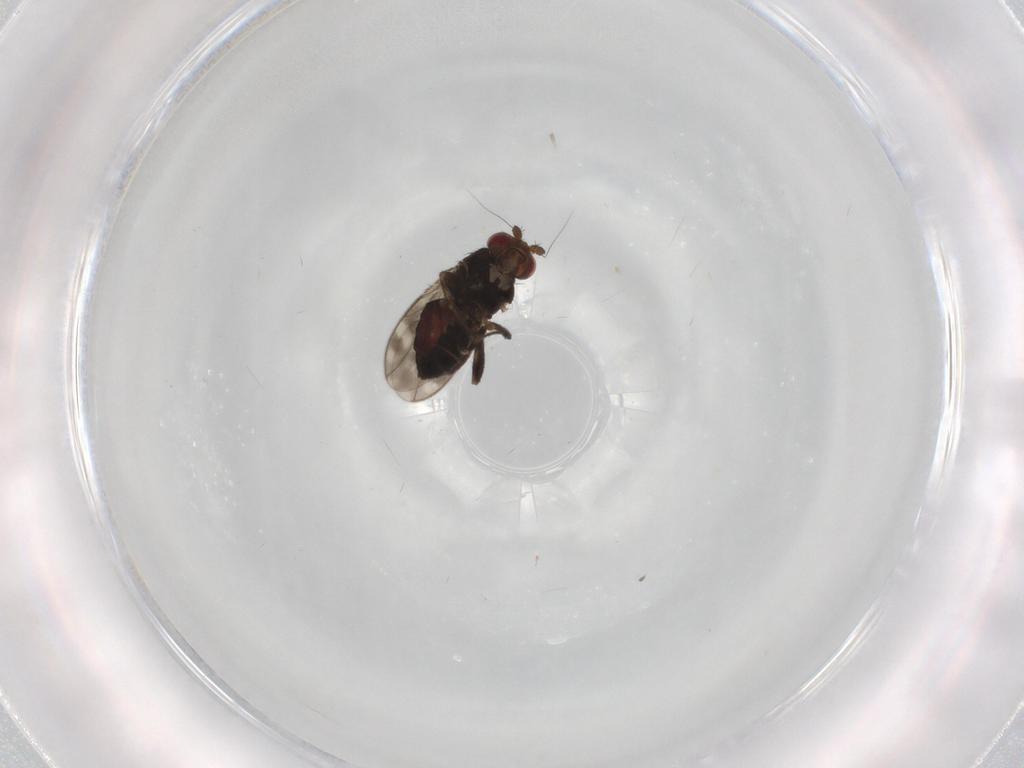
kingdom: Animalia
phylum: Arthropoda
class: Insecta
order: Diptera
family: Sphaeroceridae
